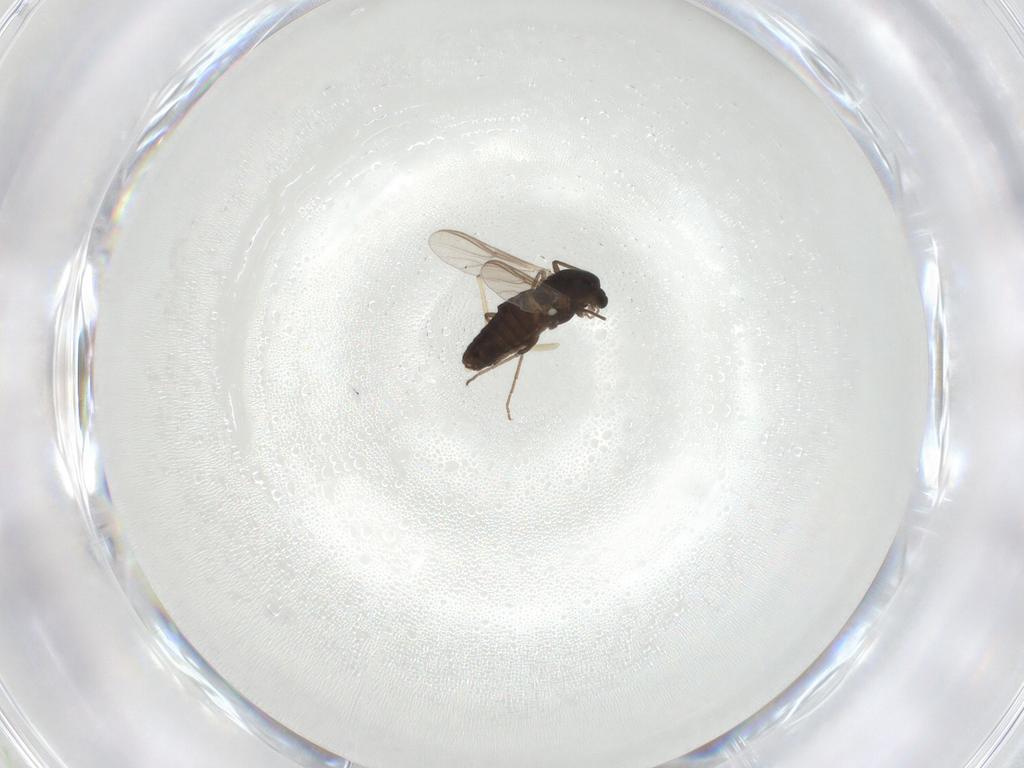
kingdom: Animalia
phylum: Arthropoda
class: Insecta
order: Diptera
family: Chironomidae
